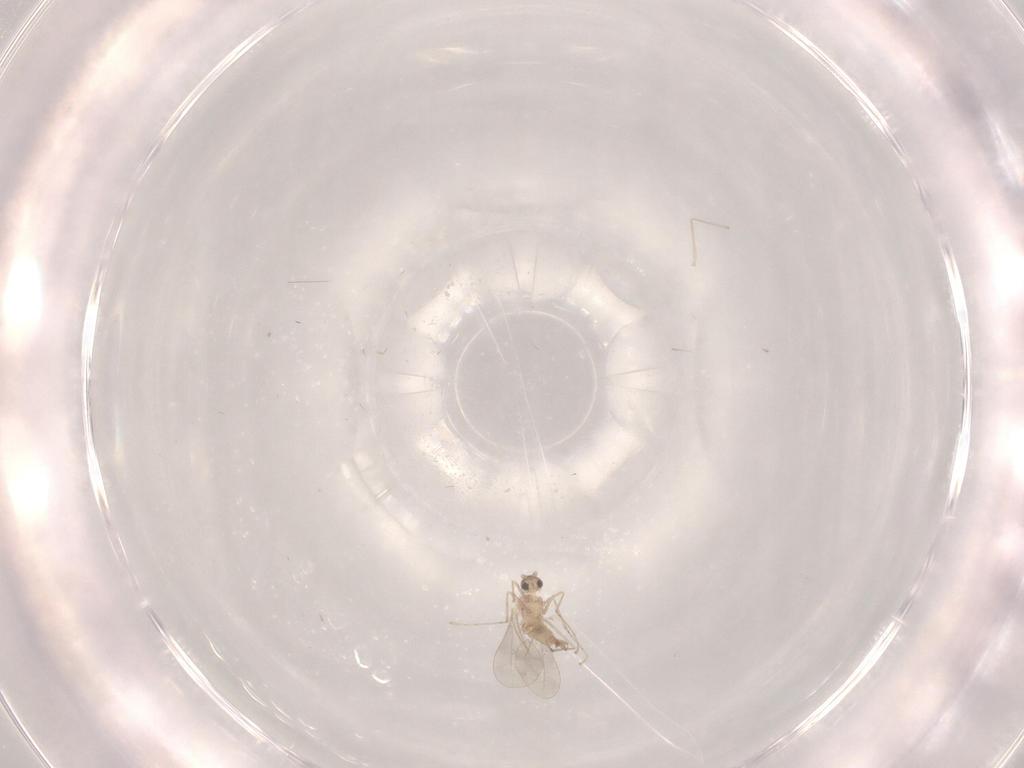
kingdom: Animalia
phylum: Arthropoda
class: Insecta
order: Diptera
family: Sciaridae
